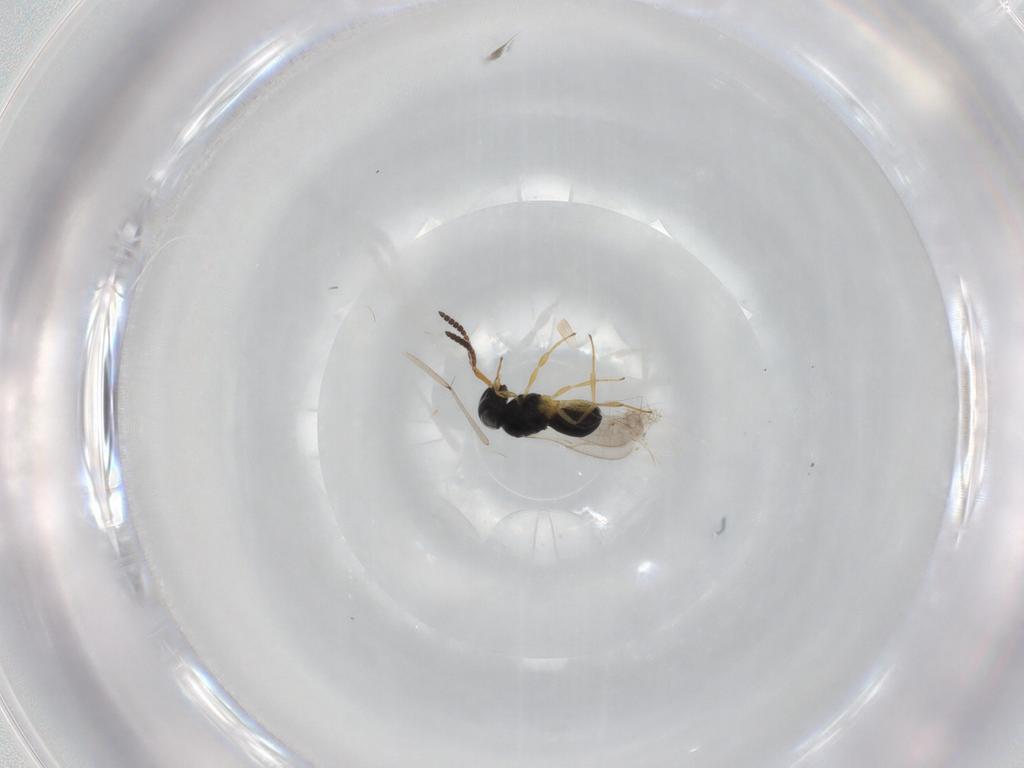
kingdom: Animalia
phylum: Arthropoda
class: Insecta
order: Hymenoptera
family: Scelionidae
